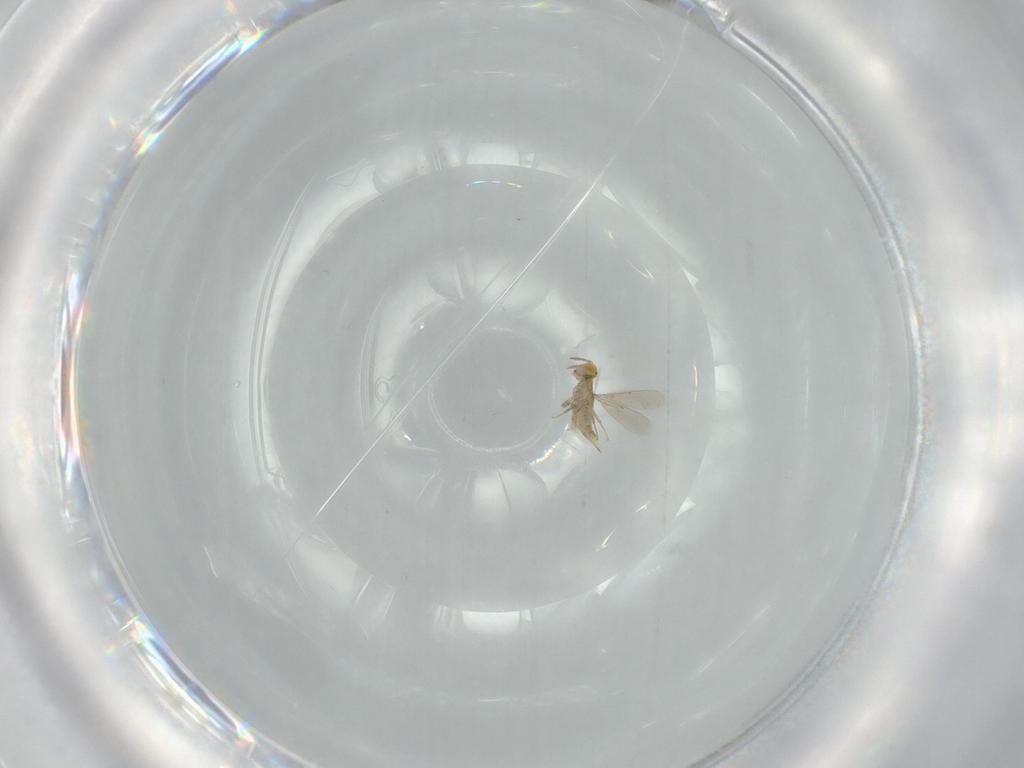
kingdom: Animalia
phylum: Arthropoda
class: Insecta
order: Hymenoptera
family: Aphelinidae
